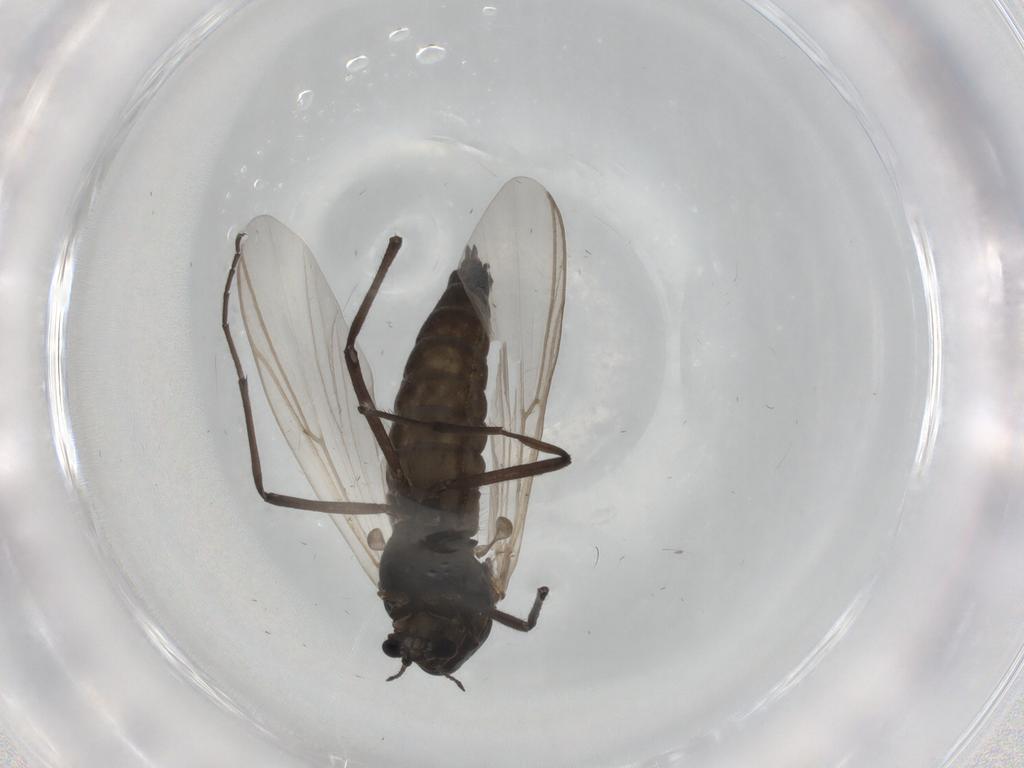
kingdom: Animalia
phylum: Arthropoda
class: Insecta
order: Diptera
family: Chironomidae
